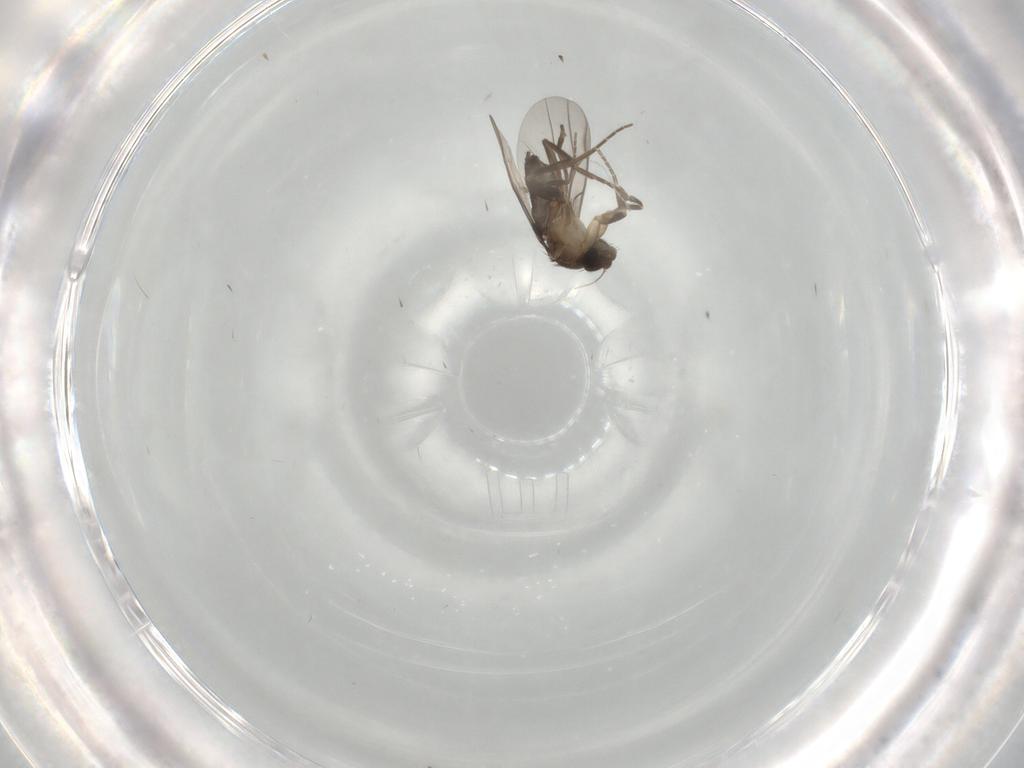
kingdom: Animalia
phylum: Arthropoda
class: Insecta
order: Diptera
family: Phoridae
